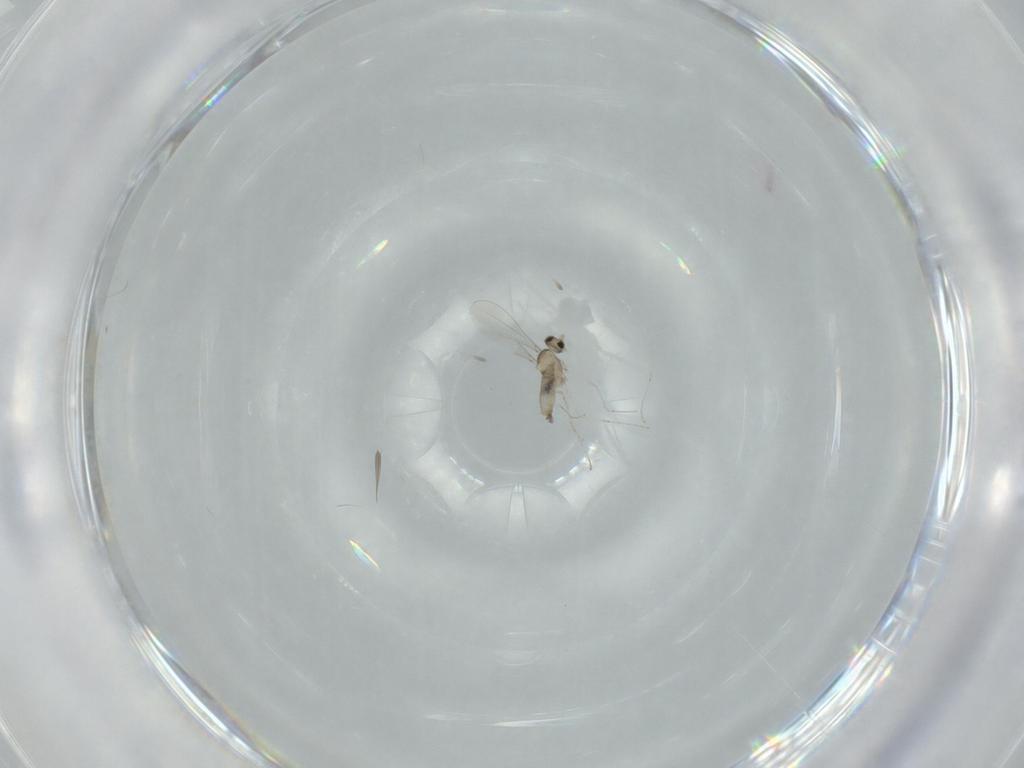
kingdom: Animalia
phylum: Arthropoda
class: Insecta
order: Diptera
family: Cecidomyiidae
